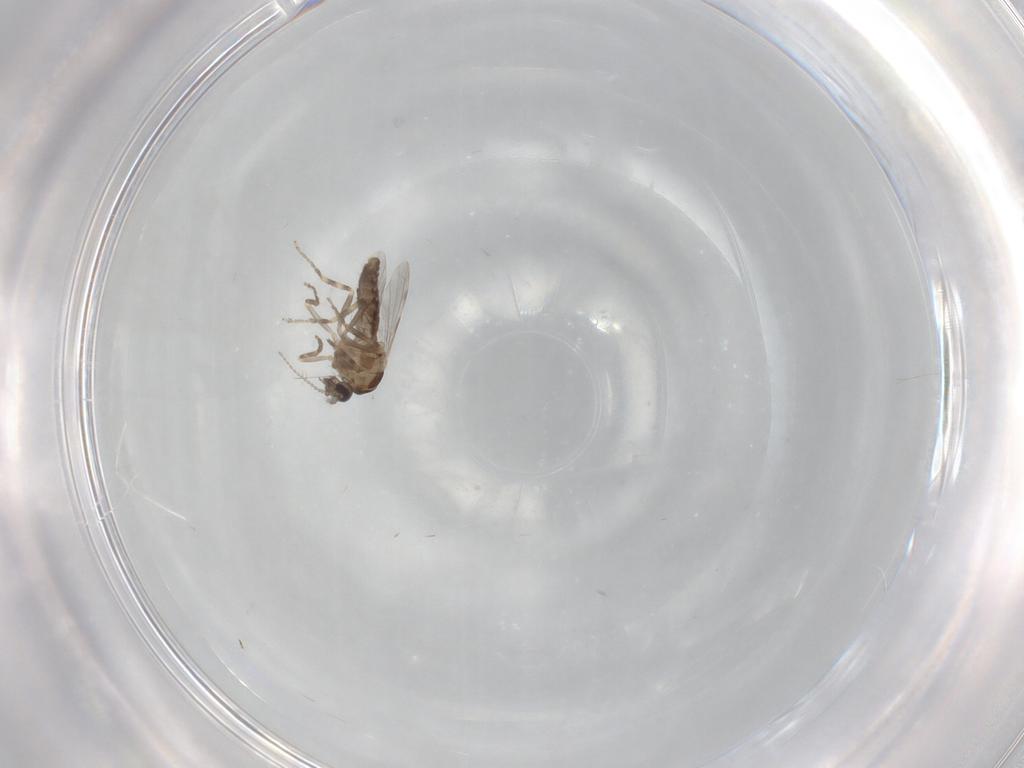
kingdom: Animalia
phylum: Arthropoda
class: Insecta
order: Diptera
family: Ceratopogonidae
